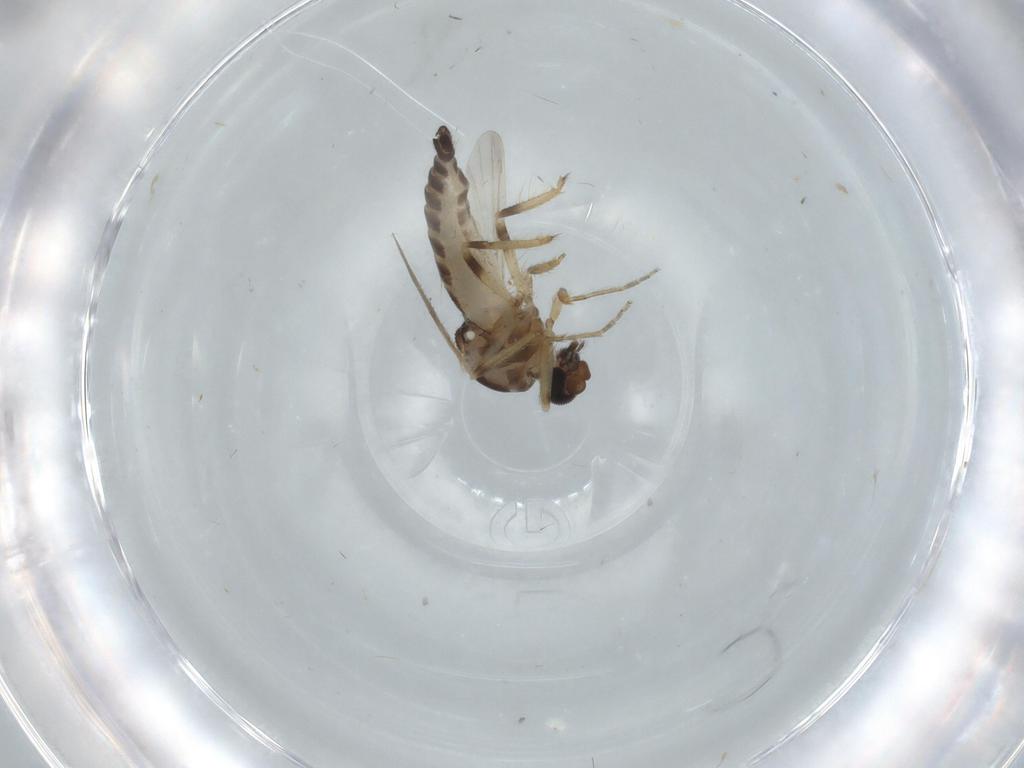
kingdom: Animalia
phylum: Arthropoda
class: Insecta
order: Diptera
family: Ceratopogonidae
